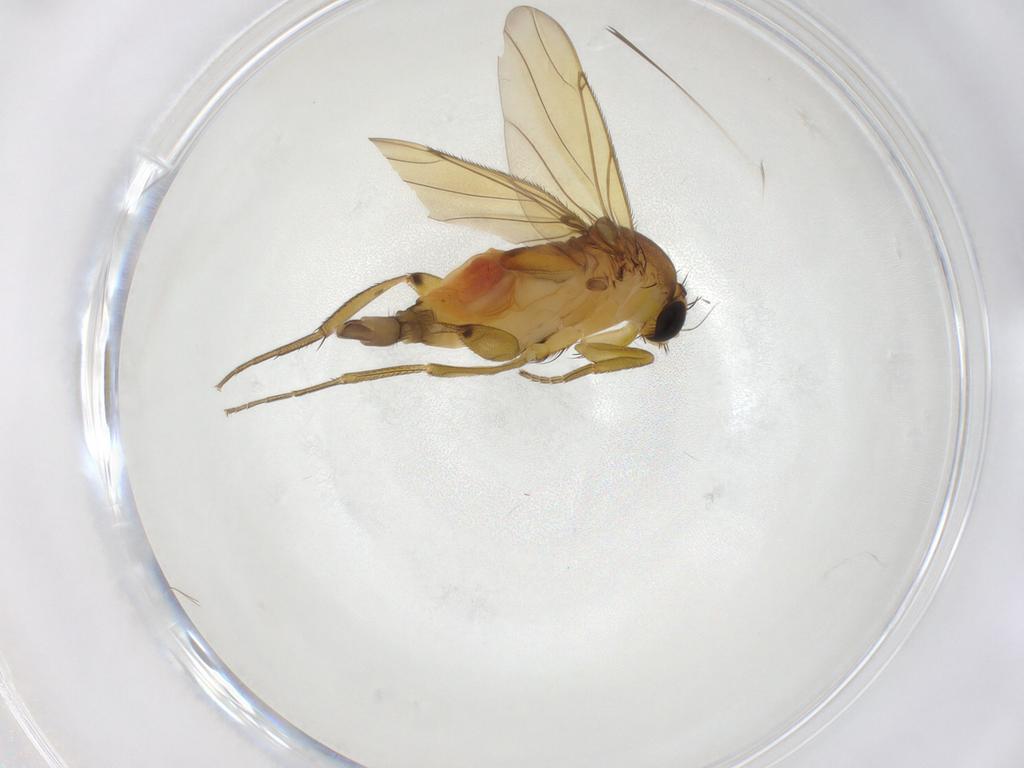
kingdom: Animalia
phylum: Arthropoda
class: Insecta
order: Diptera
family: Phoridae
